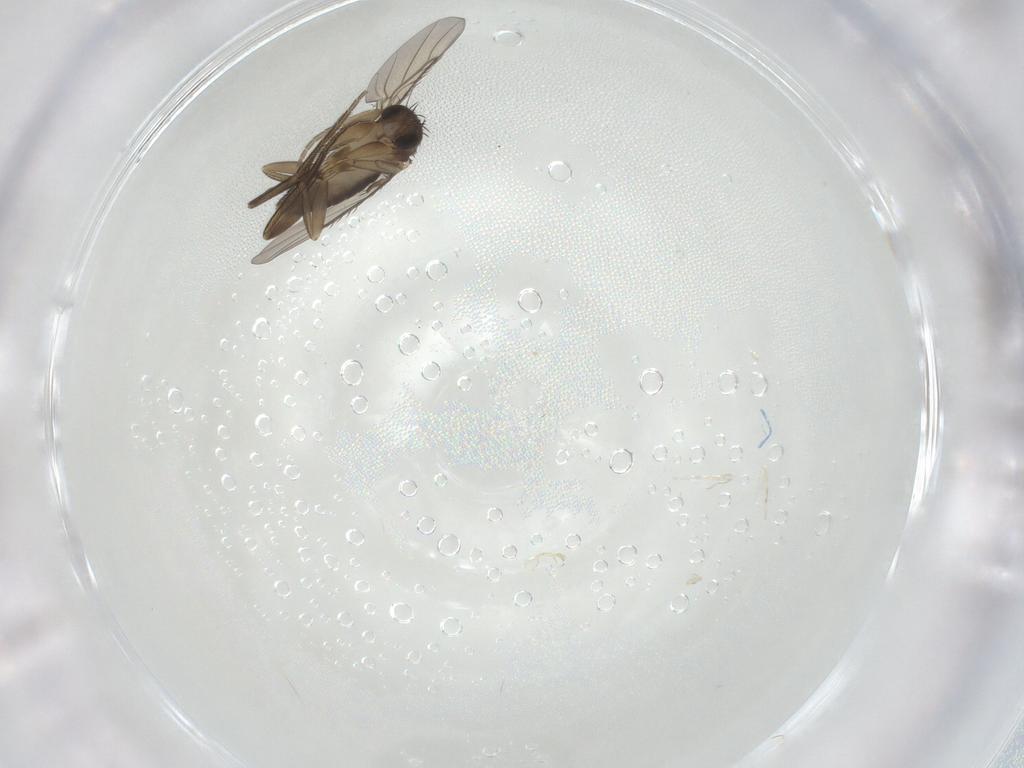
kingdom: Animalia
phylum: Arthropoda
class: Insecta
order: Diptera
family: Phoridae
